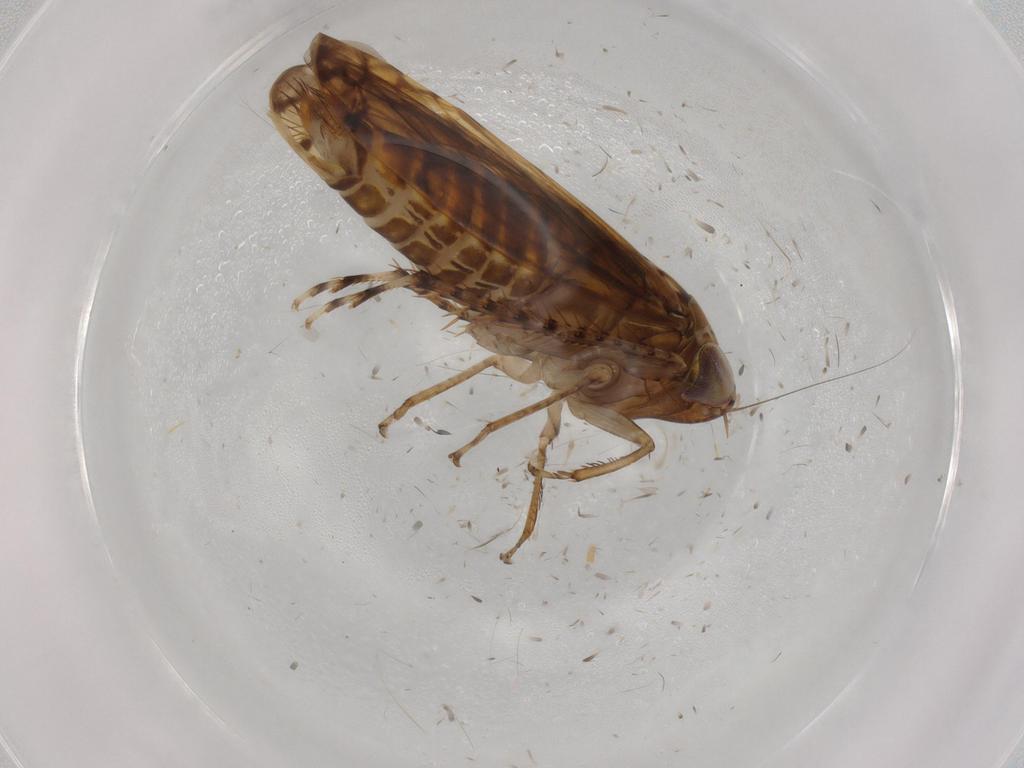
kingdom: Animalia
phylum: Arthropoda
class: Insecta
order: Hemiptera
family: Cicadellidae
